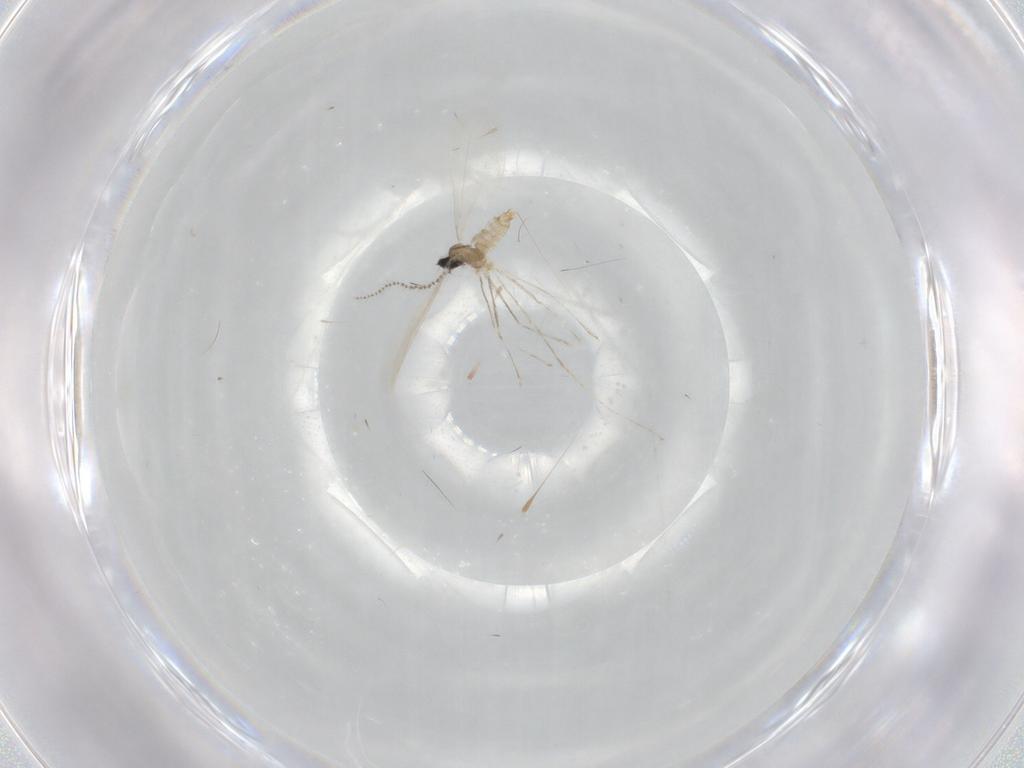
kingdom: Animalia
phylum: Arthropoda
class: Insecta
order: Diptera
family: Cecidomyiidae
